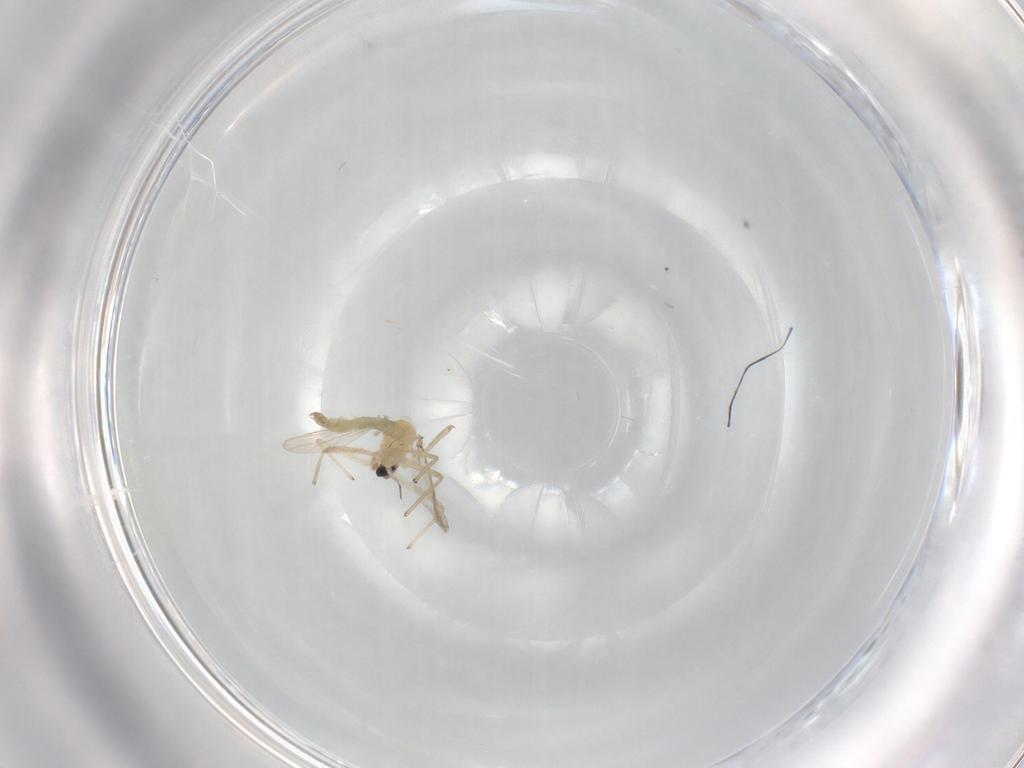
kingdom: Animalia
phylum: Arthropoda
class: Insecta
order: Diptera
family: Chironomidae
